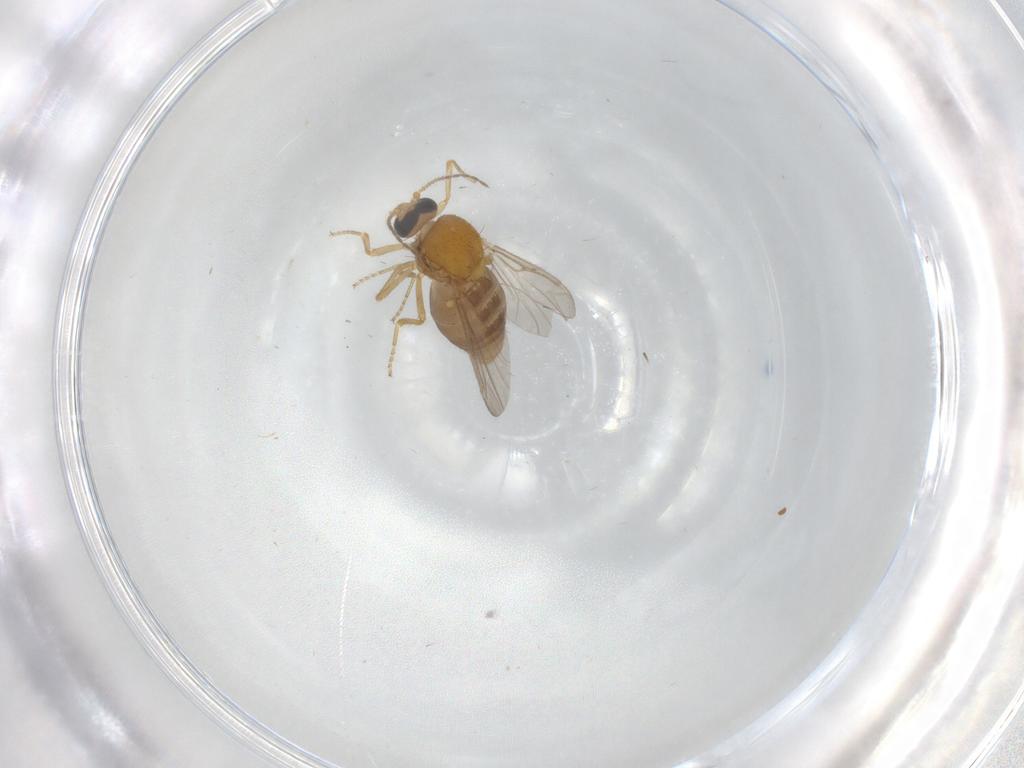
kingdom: Animalia
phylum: Arthropoda
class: Insecta
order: Diptera
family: Ceratopogonidae
